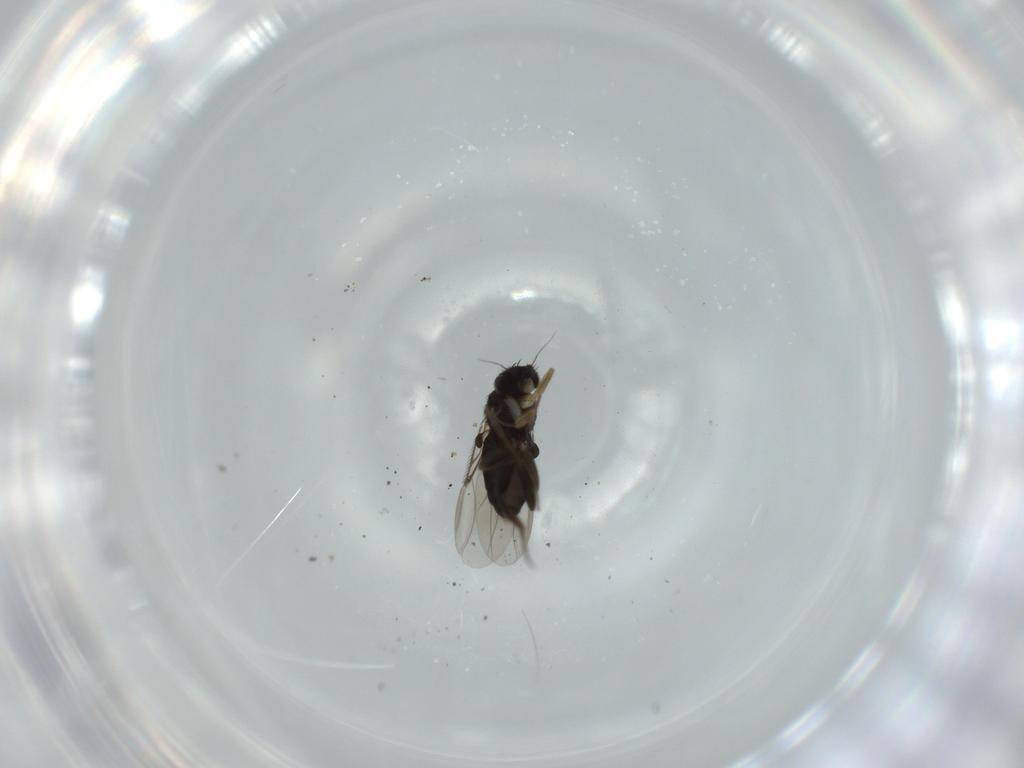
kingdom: Animalia
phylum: Arthropoda
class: Insecta
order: Diptera
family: Phoridae
